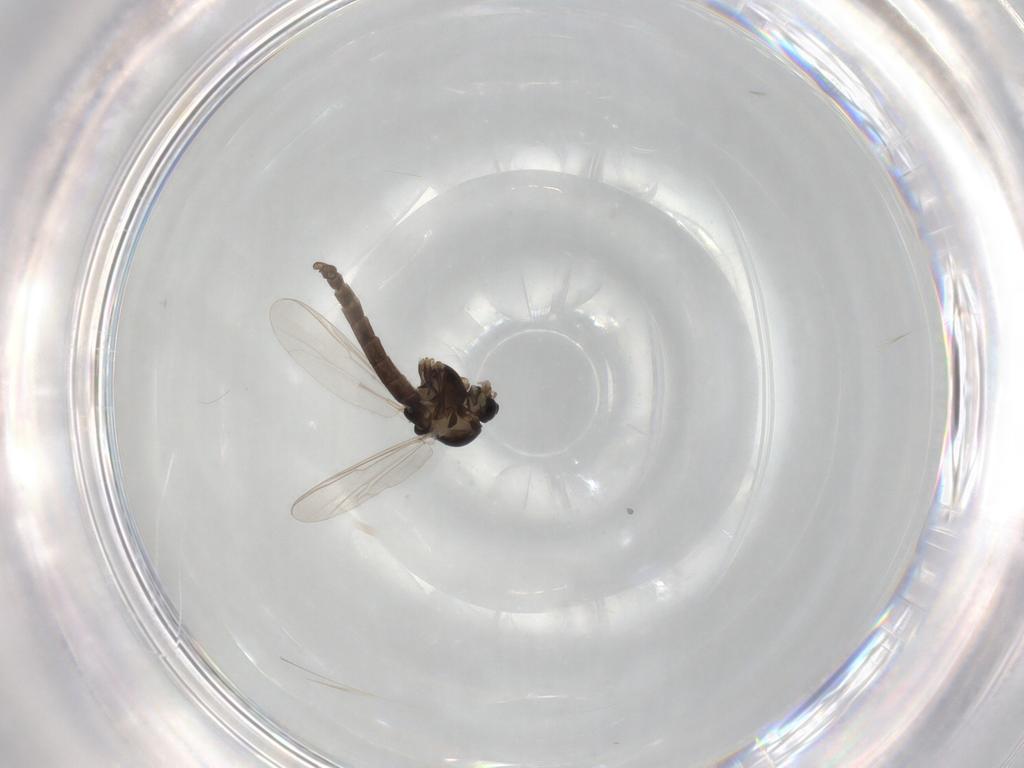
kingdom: Animalia
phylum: Arthropoda
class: Insecta
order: Diptera
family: Chironomidae
